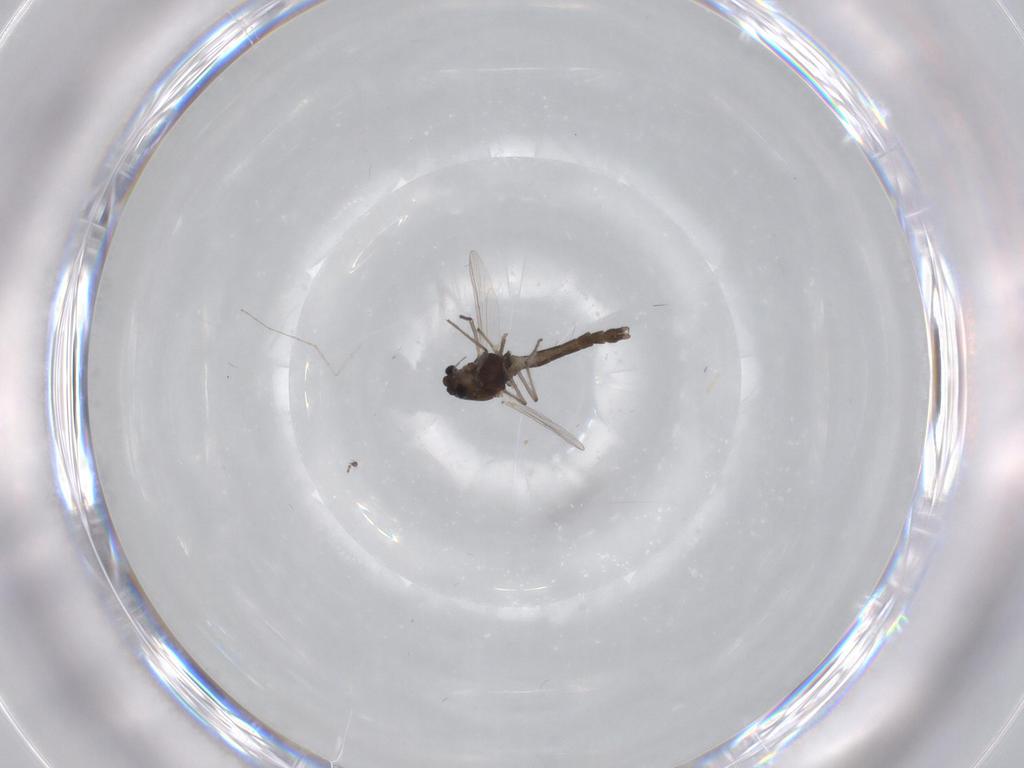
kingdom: Animalia
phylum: Arthropoda
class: Insecta
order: Diptera
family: Chironomidae
